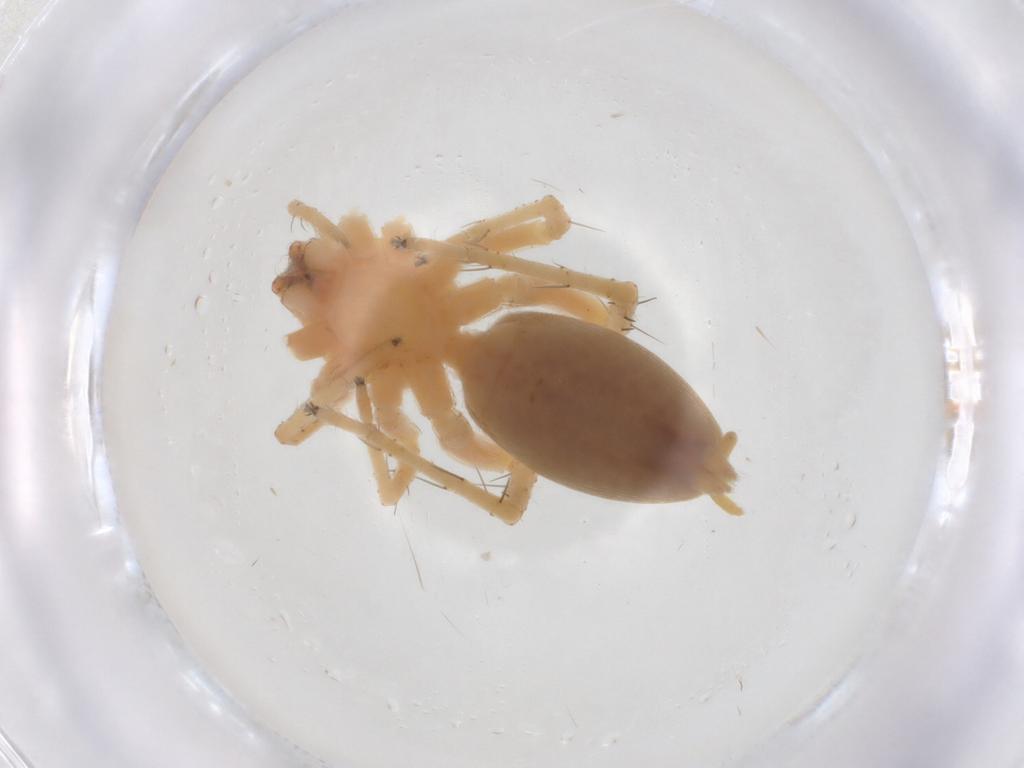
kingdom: Animalia
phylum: Arthropoda
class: Arachnida
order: Araneae
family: Anyphaenidae
